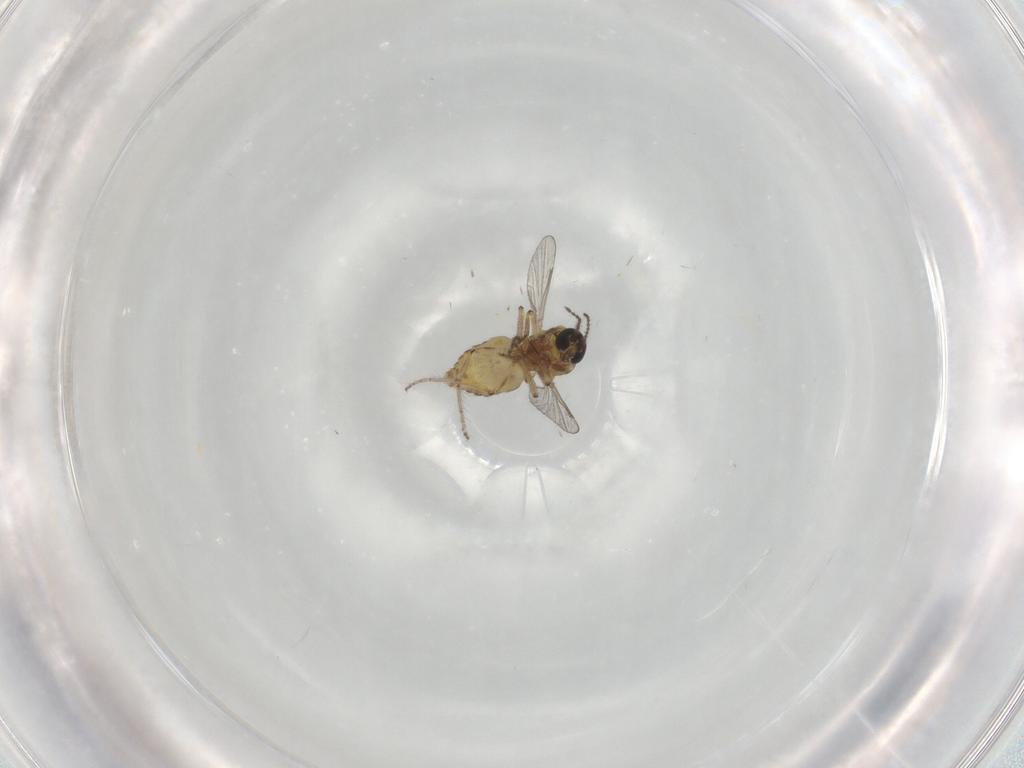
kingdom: Animalia
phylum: Arthropoda
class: Insecta
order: Diptera
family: Ceratopogonidae
